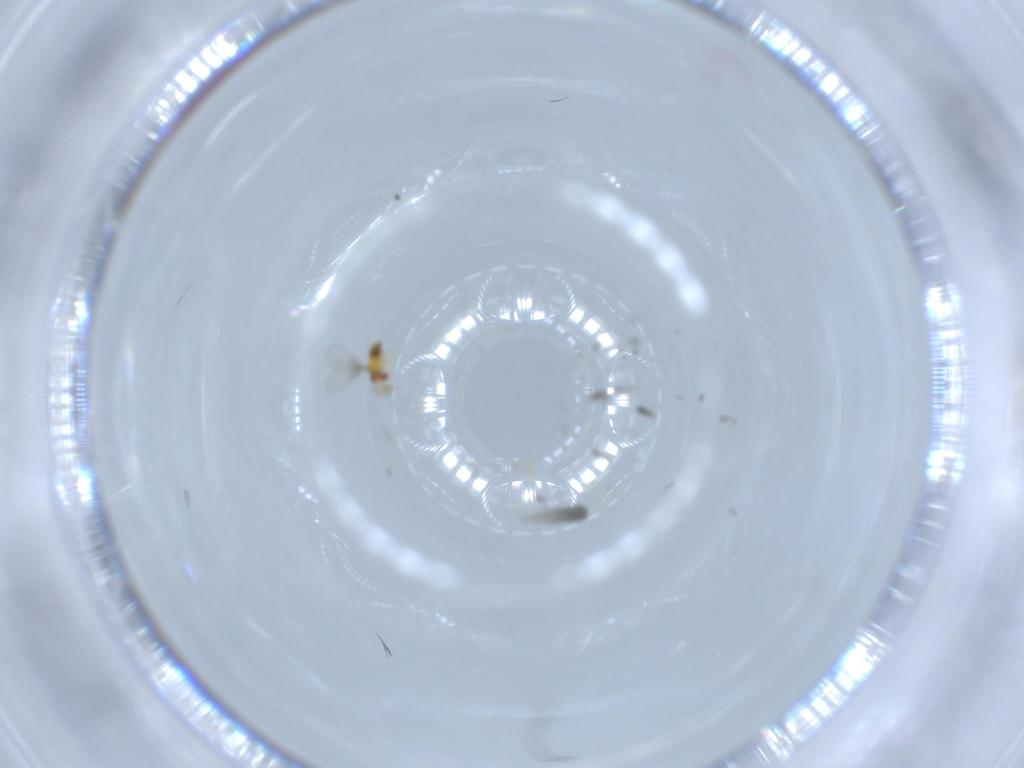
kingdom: Animalia
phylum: Arthropoda
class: Insecta
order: Hymenoptera
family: Trichogrammatidae
